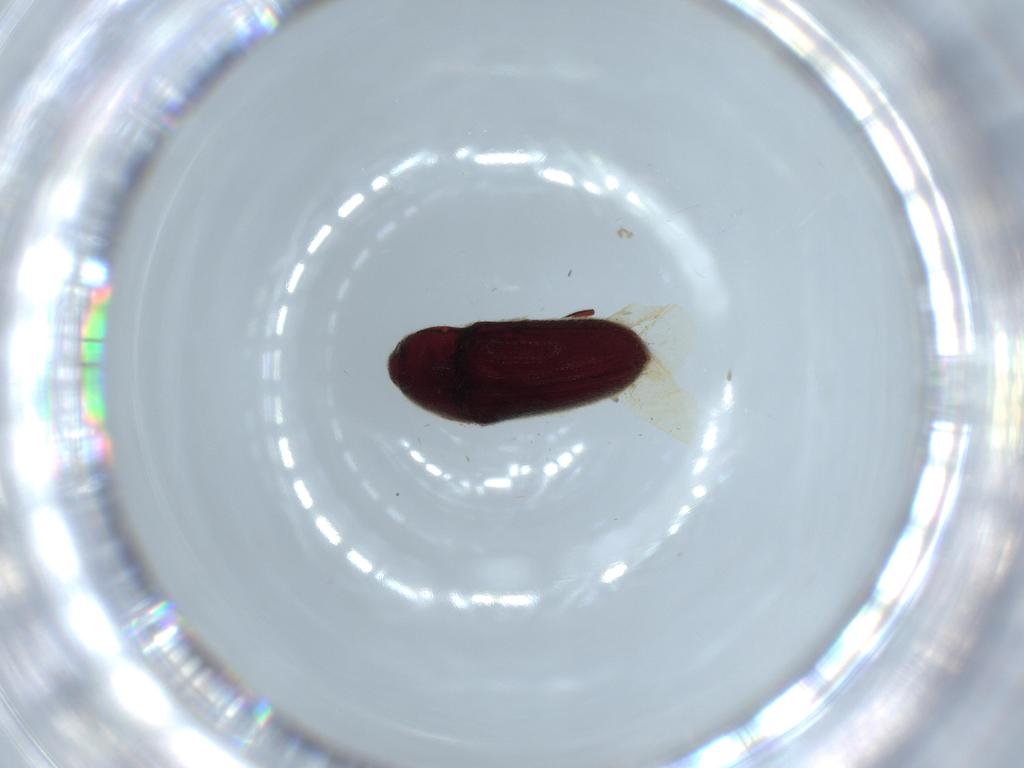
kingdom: Animalia
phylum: Arthropoda
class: Insecta
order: Coleoptera
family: Throscidae
